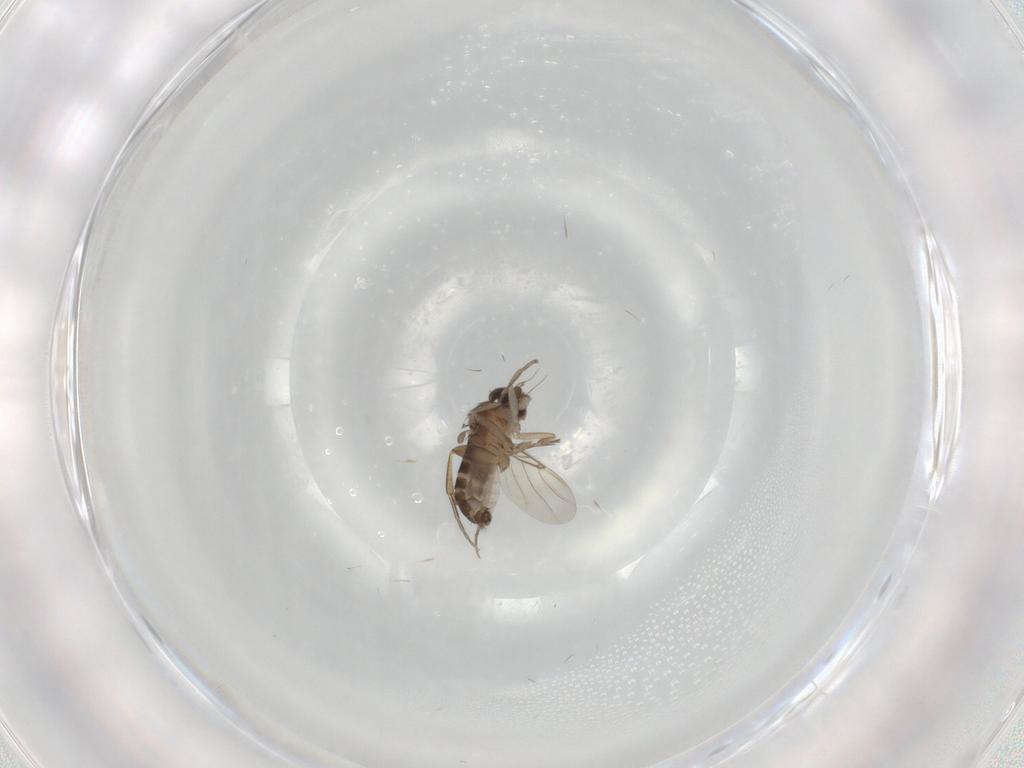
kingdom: Animalia
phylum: Arthropoda
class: Insecta
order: Diptera
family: Phoridae
